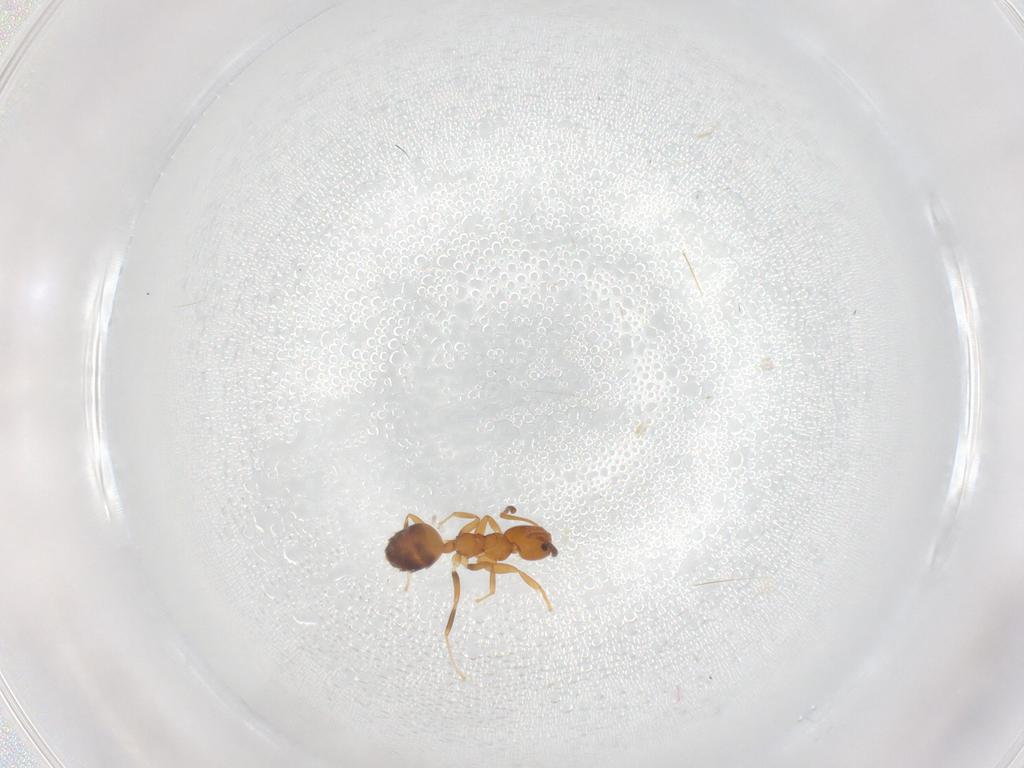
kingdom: Animalia
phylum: Arthropoda
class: Insecta
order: Hymenoptera
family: Formicidae
